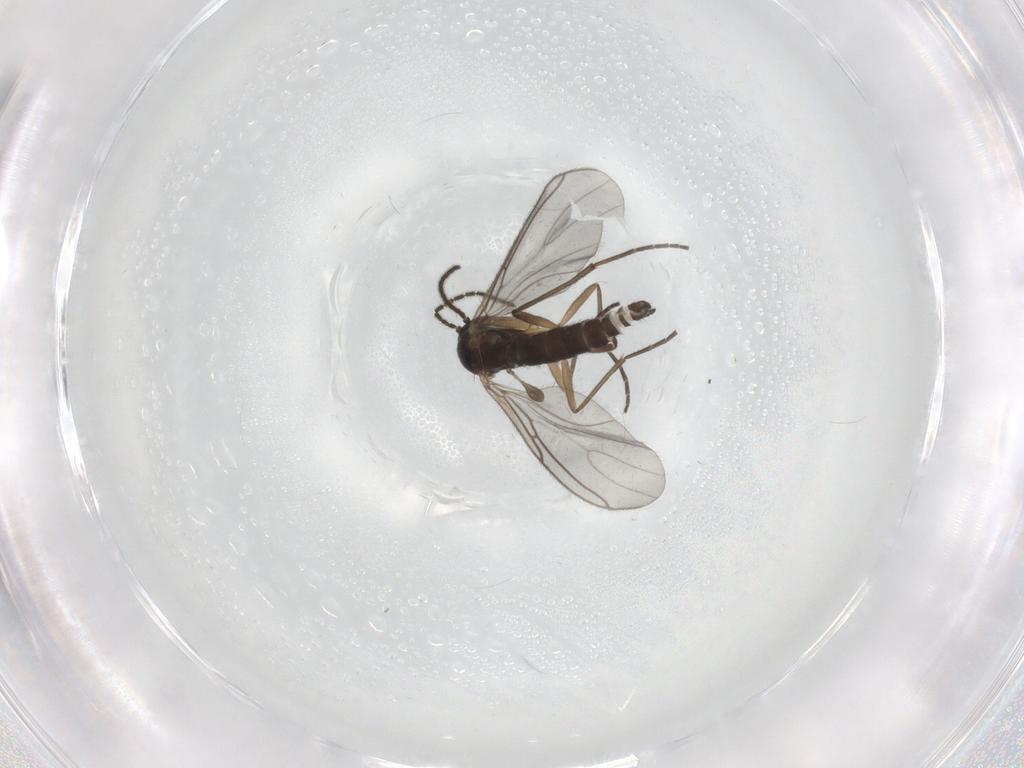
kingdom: Animalia
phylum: Arthropoda
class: Insecta
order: Diptera
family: Sciaridae
